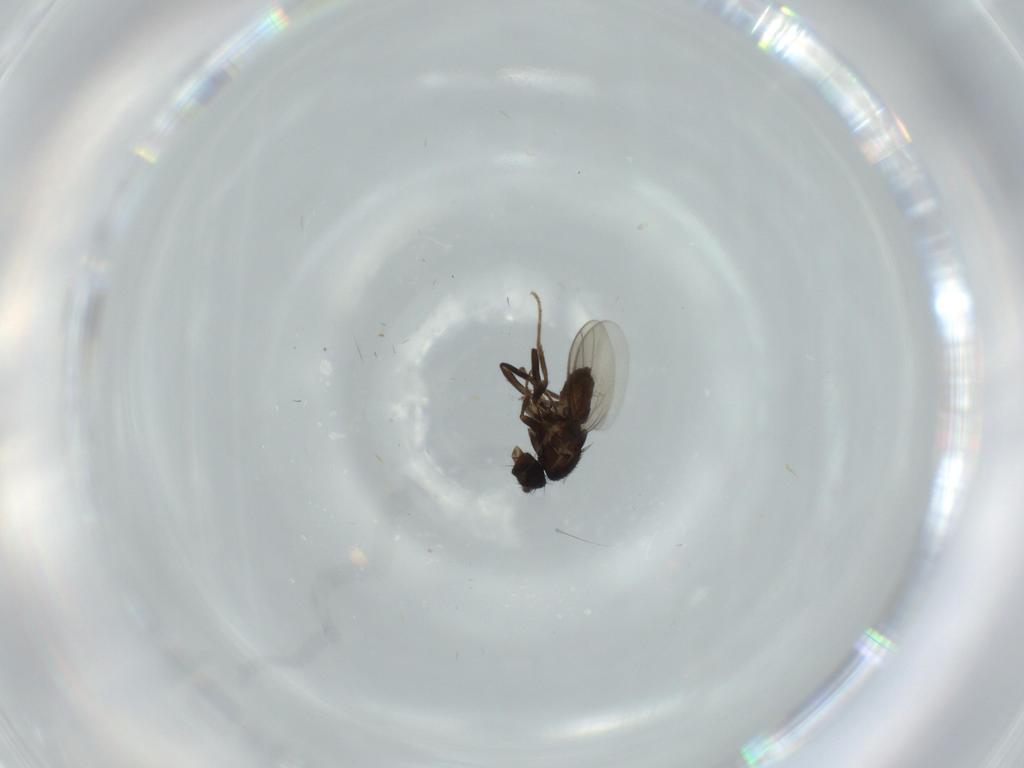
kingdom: Animalia
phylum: Arthropoda
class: Insecta
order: Diptera
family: Sphaeroceridae
